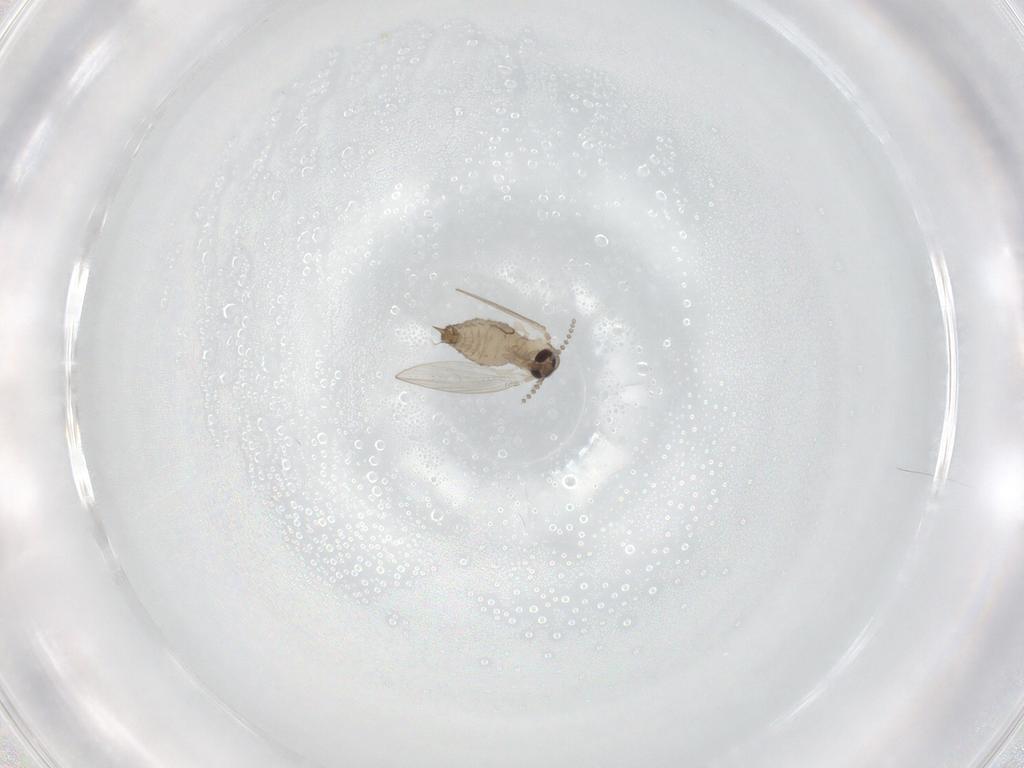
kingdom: Animalia
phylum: Arthropoda
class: Insecta
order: Diptera
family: Psychodidae
